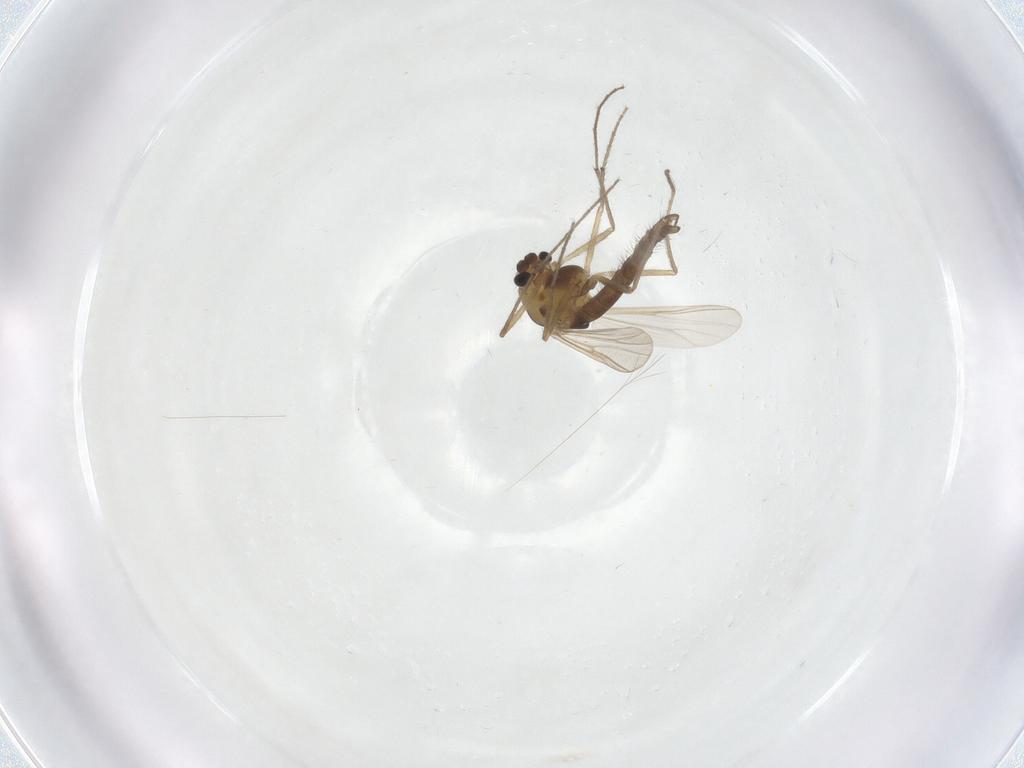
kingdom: Animalia
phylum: Arthropoda
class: Insecta
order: Diptera
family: Chironomidae
